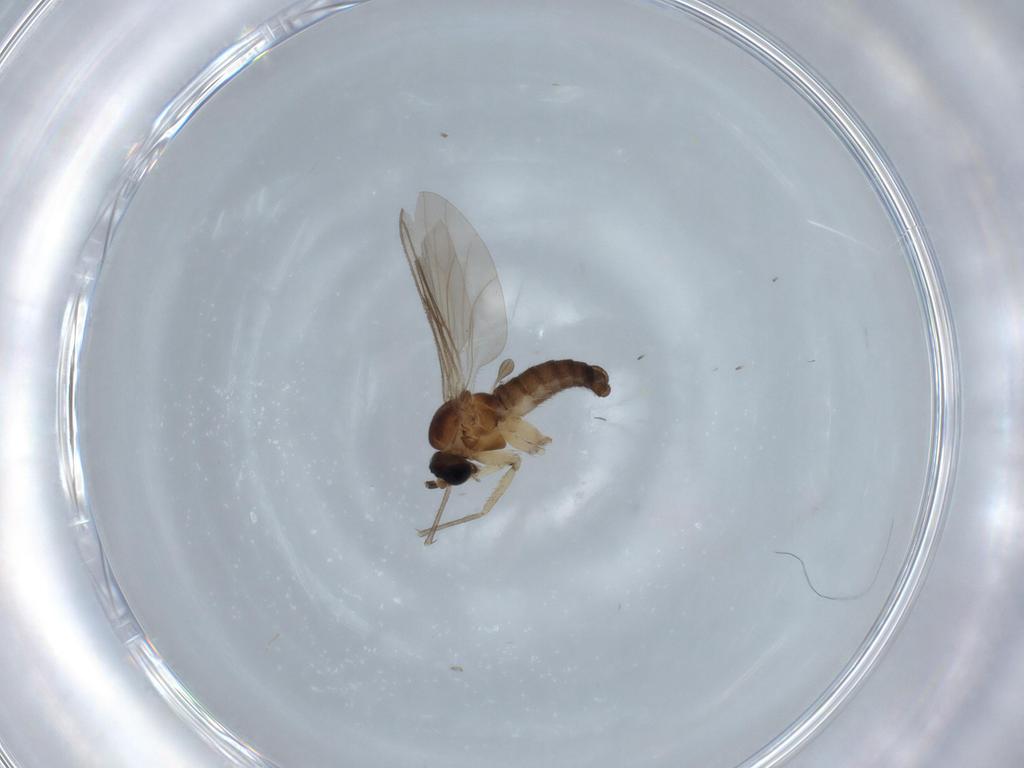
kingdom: Animalia
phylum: Arthropoda
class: Insecta
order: Diptera
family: Sciaridae
